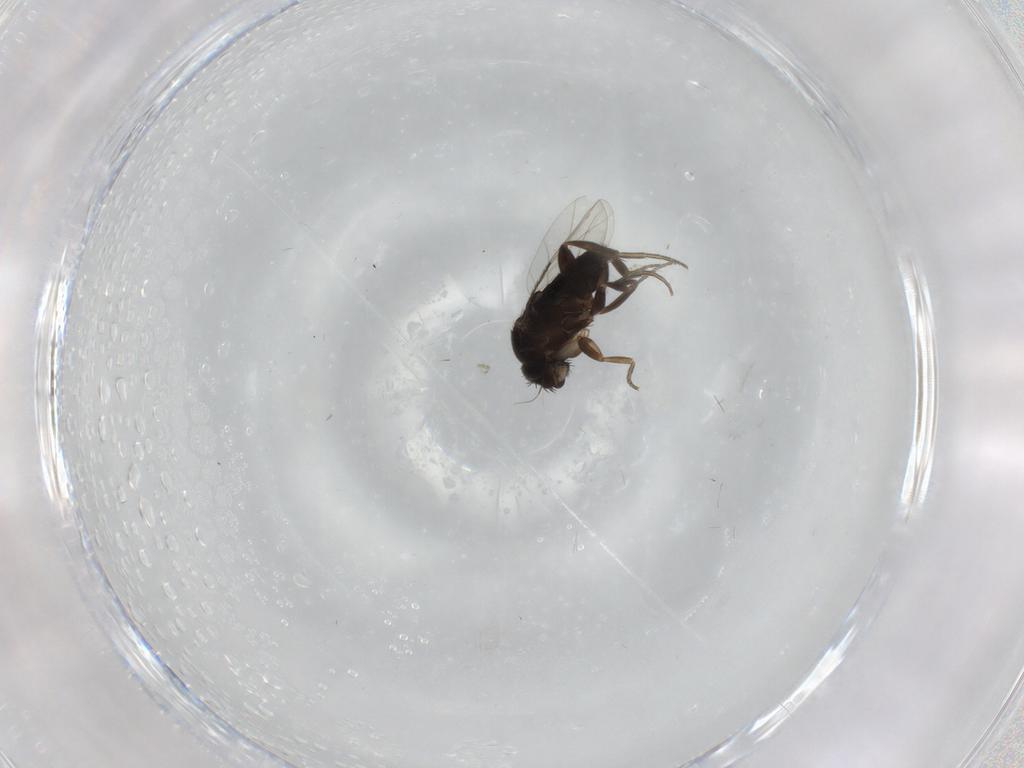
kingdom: Animalia
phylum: Arthropoda
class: Insecta
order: Diptera
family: Phoridae
